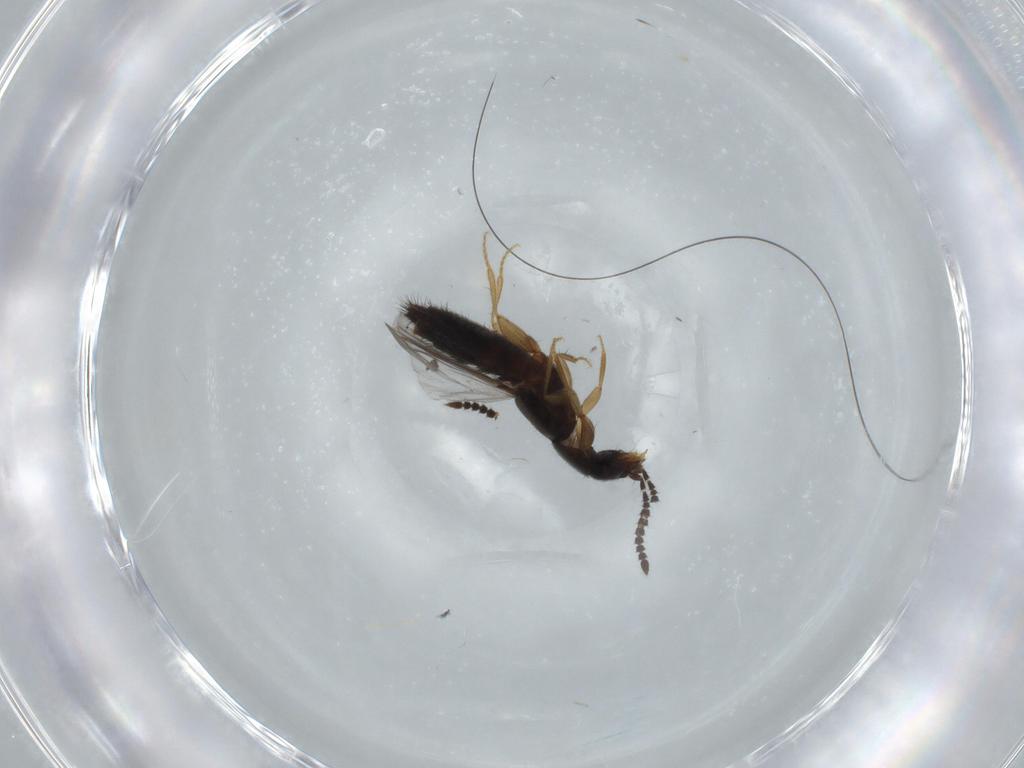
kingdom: Animalia
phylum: Arthropoda
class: Insecta
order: Coleoptera
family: Staphylinidae
